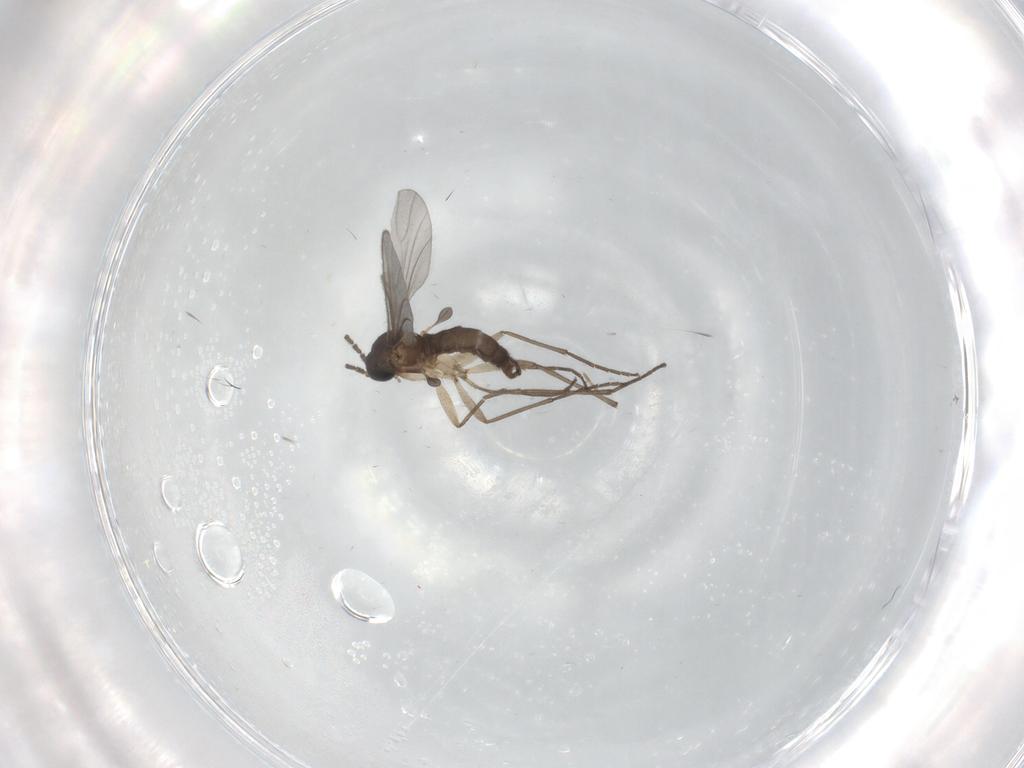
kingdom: Animalia
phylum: Arthropoda
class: Insecta
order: Diptera
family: Sciaridae
